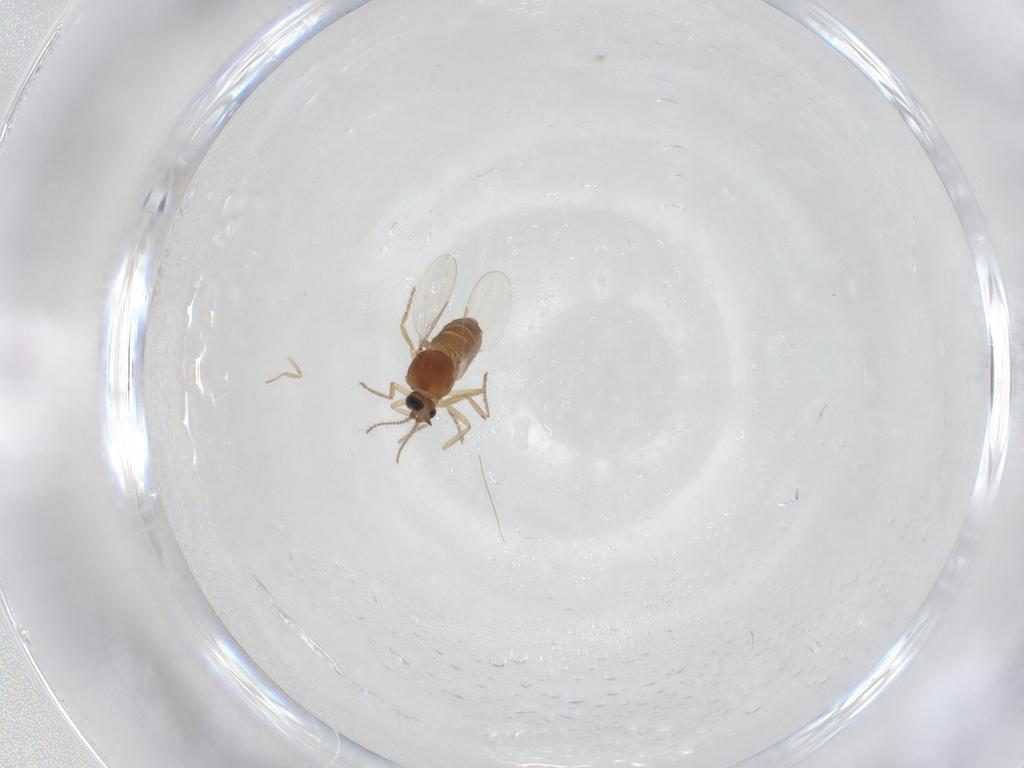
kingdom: Animalia
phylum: Arthropoda
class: Insecta
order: Diptera
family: Ceratopogonidae
